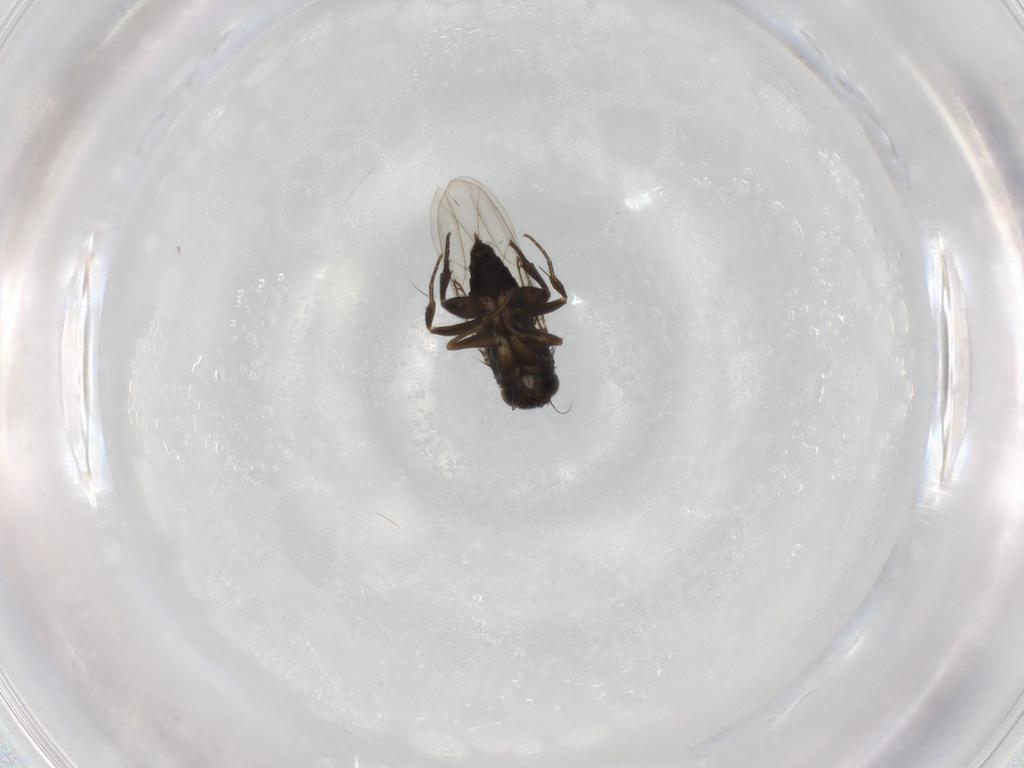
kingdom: Animalia
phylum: Arthropoda
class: Insecta
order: Diptera
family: Phoridae
